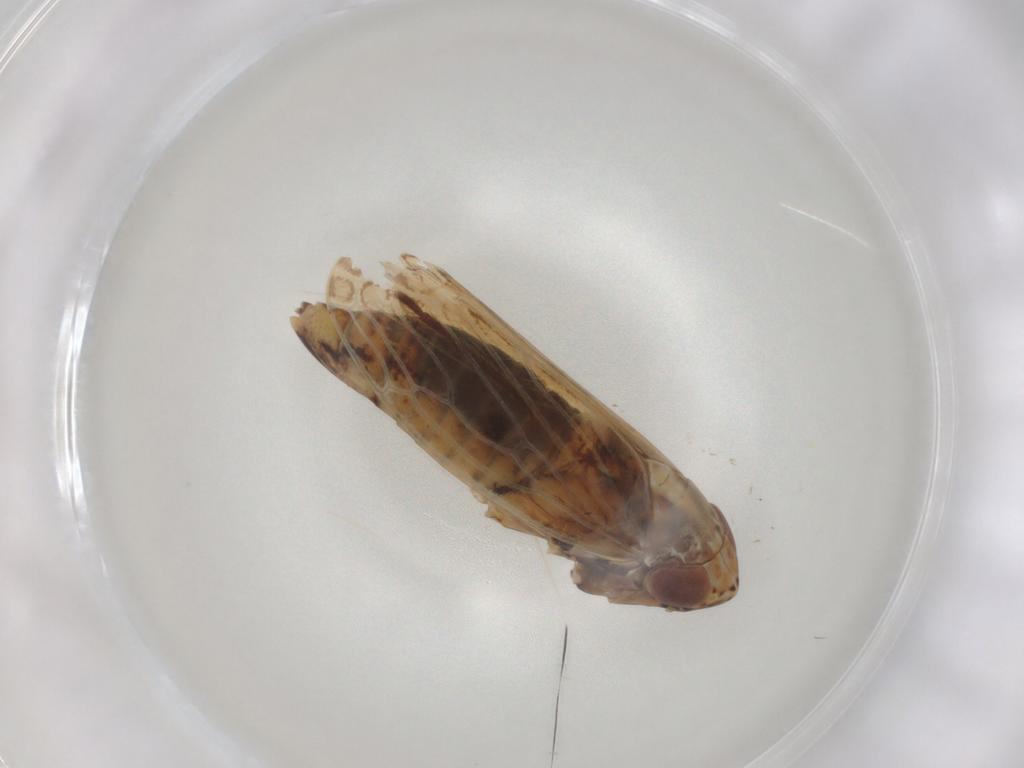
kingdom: Animalia
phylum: Arthropoda
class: Insecta
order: Hemiptera
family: Cicadellidae
